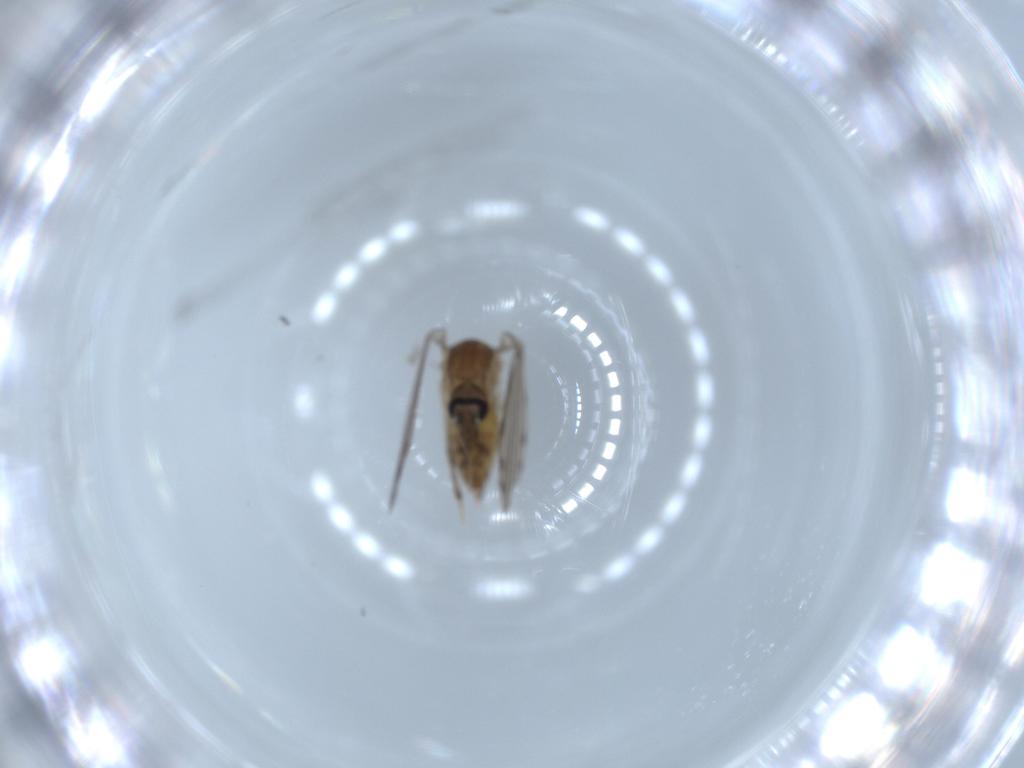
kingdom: Animalia
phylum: Arthropoda
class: Insecta
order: Diptera
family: Psychodidae
